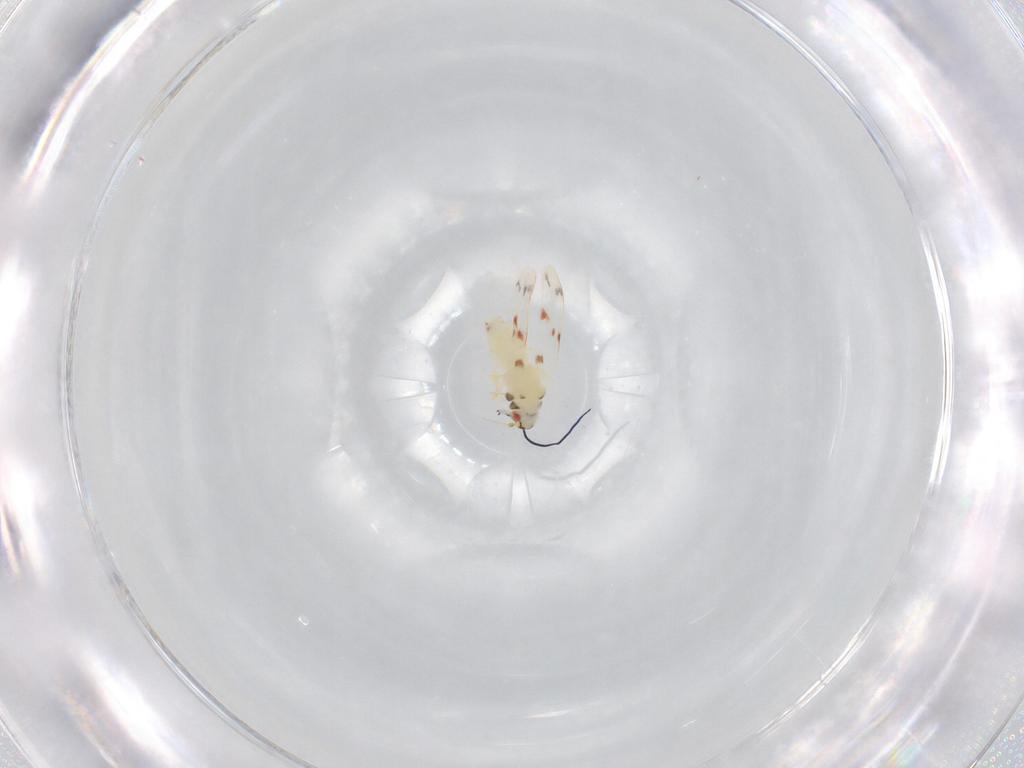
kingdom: Animalia
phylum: Arthropoda
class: Insecta
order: Hemiptera
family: Aleyrodidae
